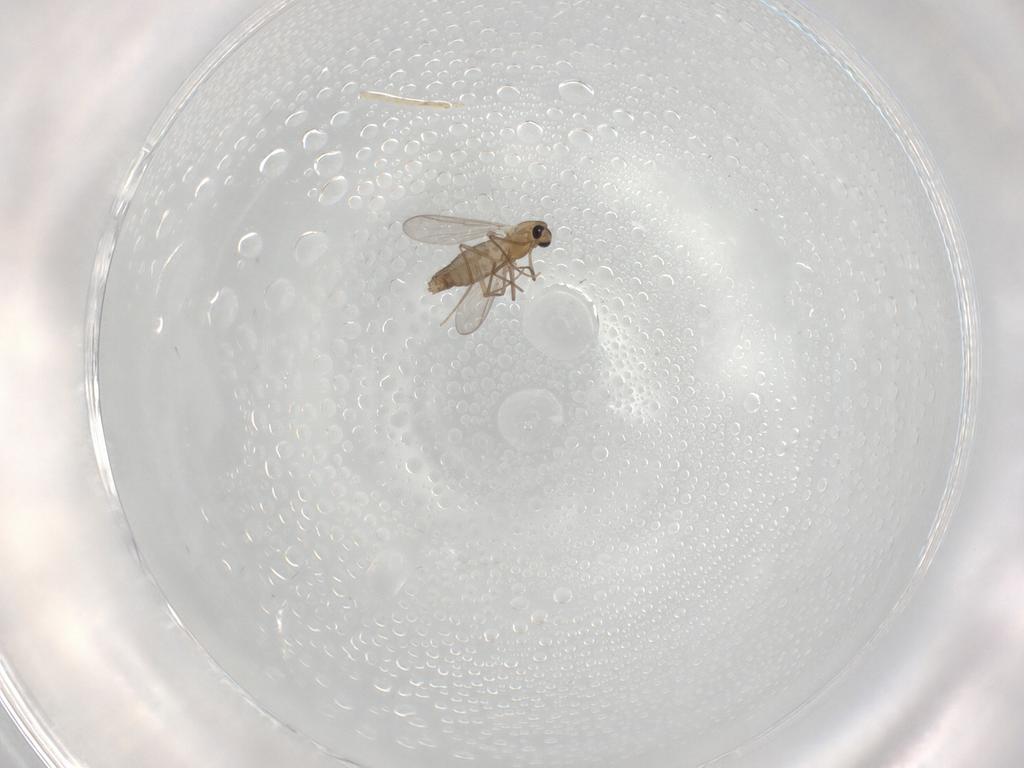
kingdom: Animalia
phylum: Arthropoda
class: Insecta
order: Diptera
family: Chironomidae
